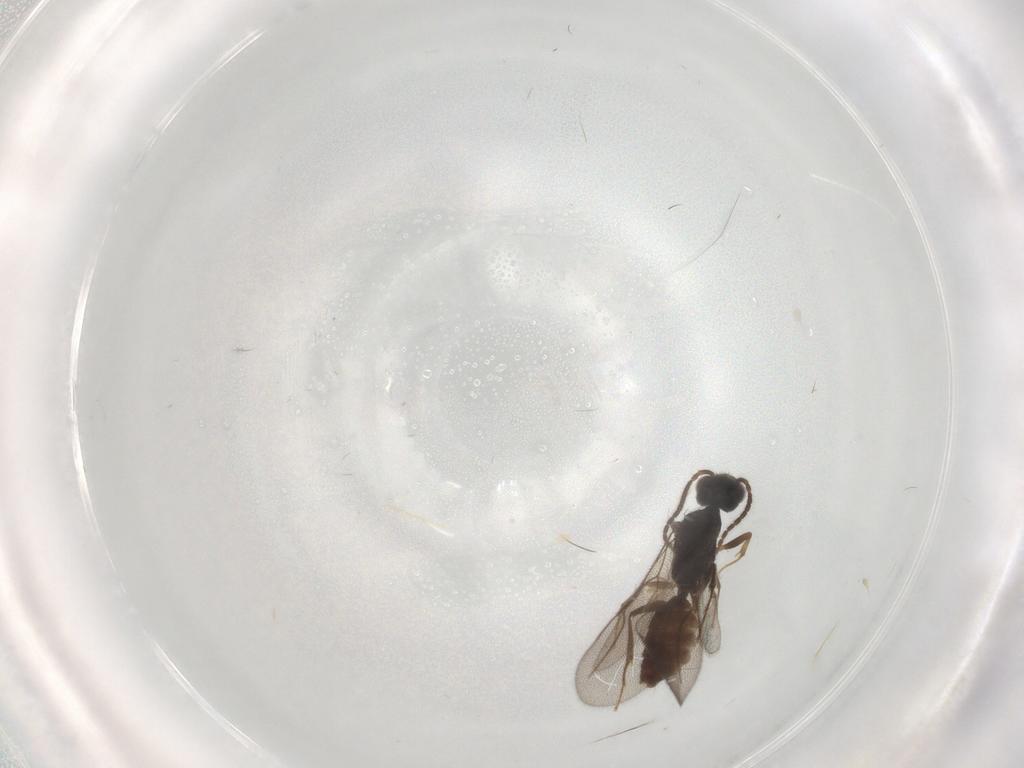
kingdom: Animalia
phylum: Arthropoda
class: Insecta
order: Hymenoptera
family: Bethylidae
